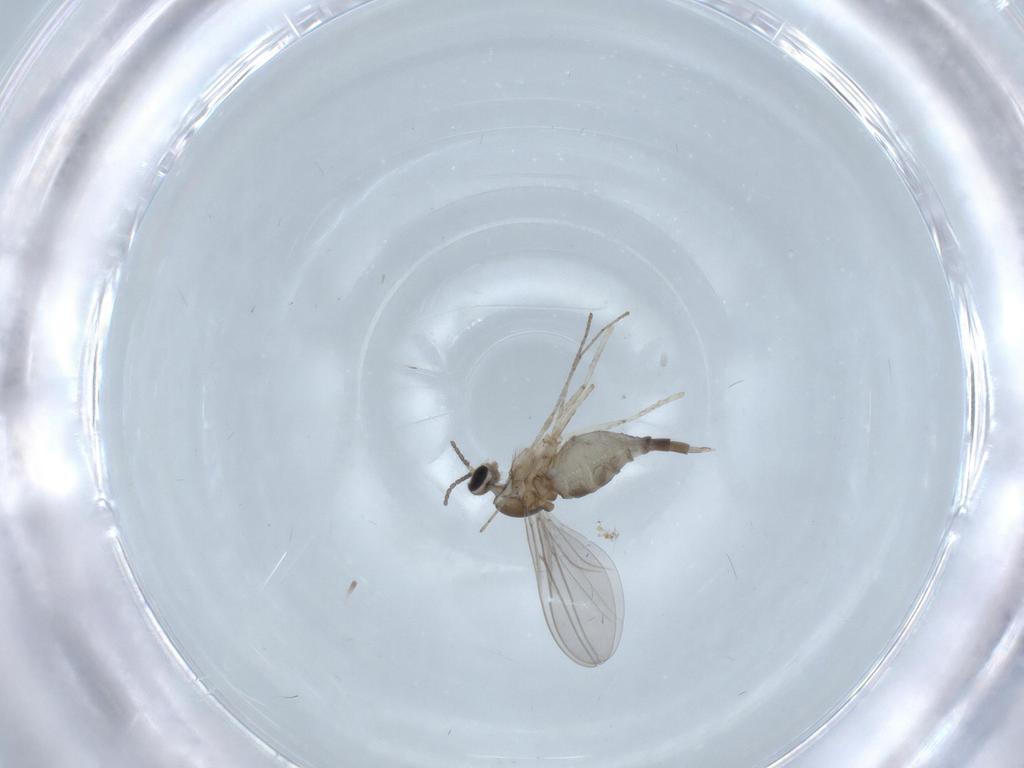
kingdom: Animalia
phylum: Arthropoda
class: Insecta
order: Diptera
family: Cecidomyiidae
